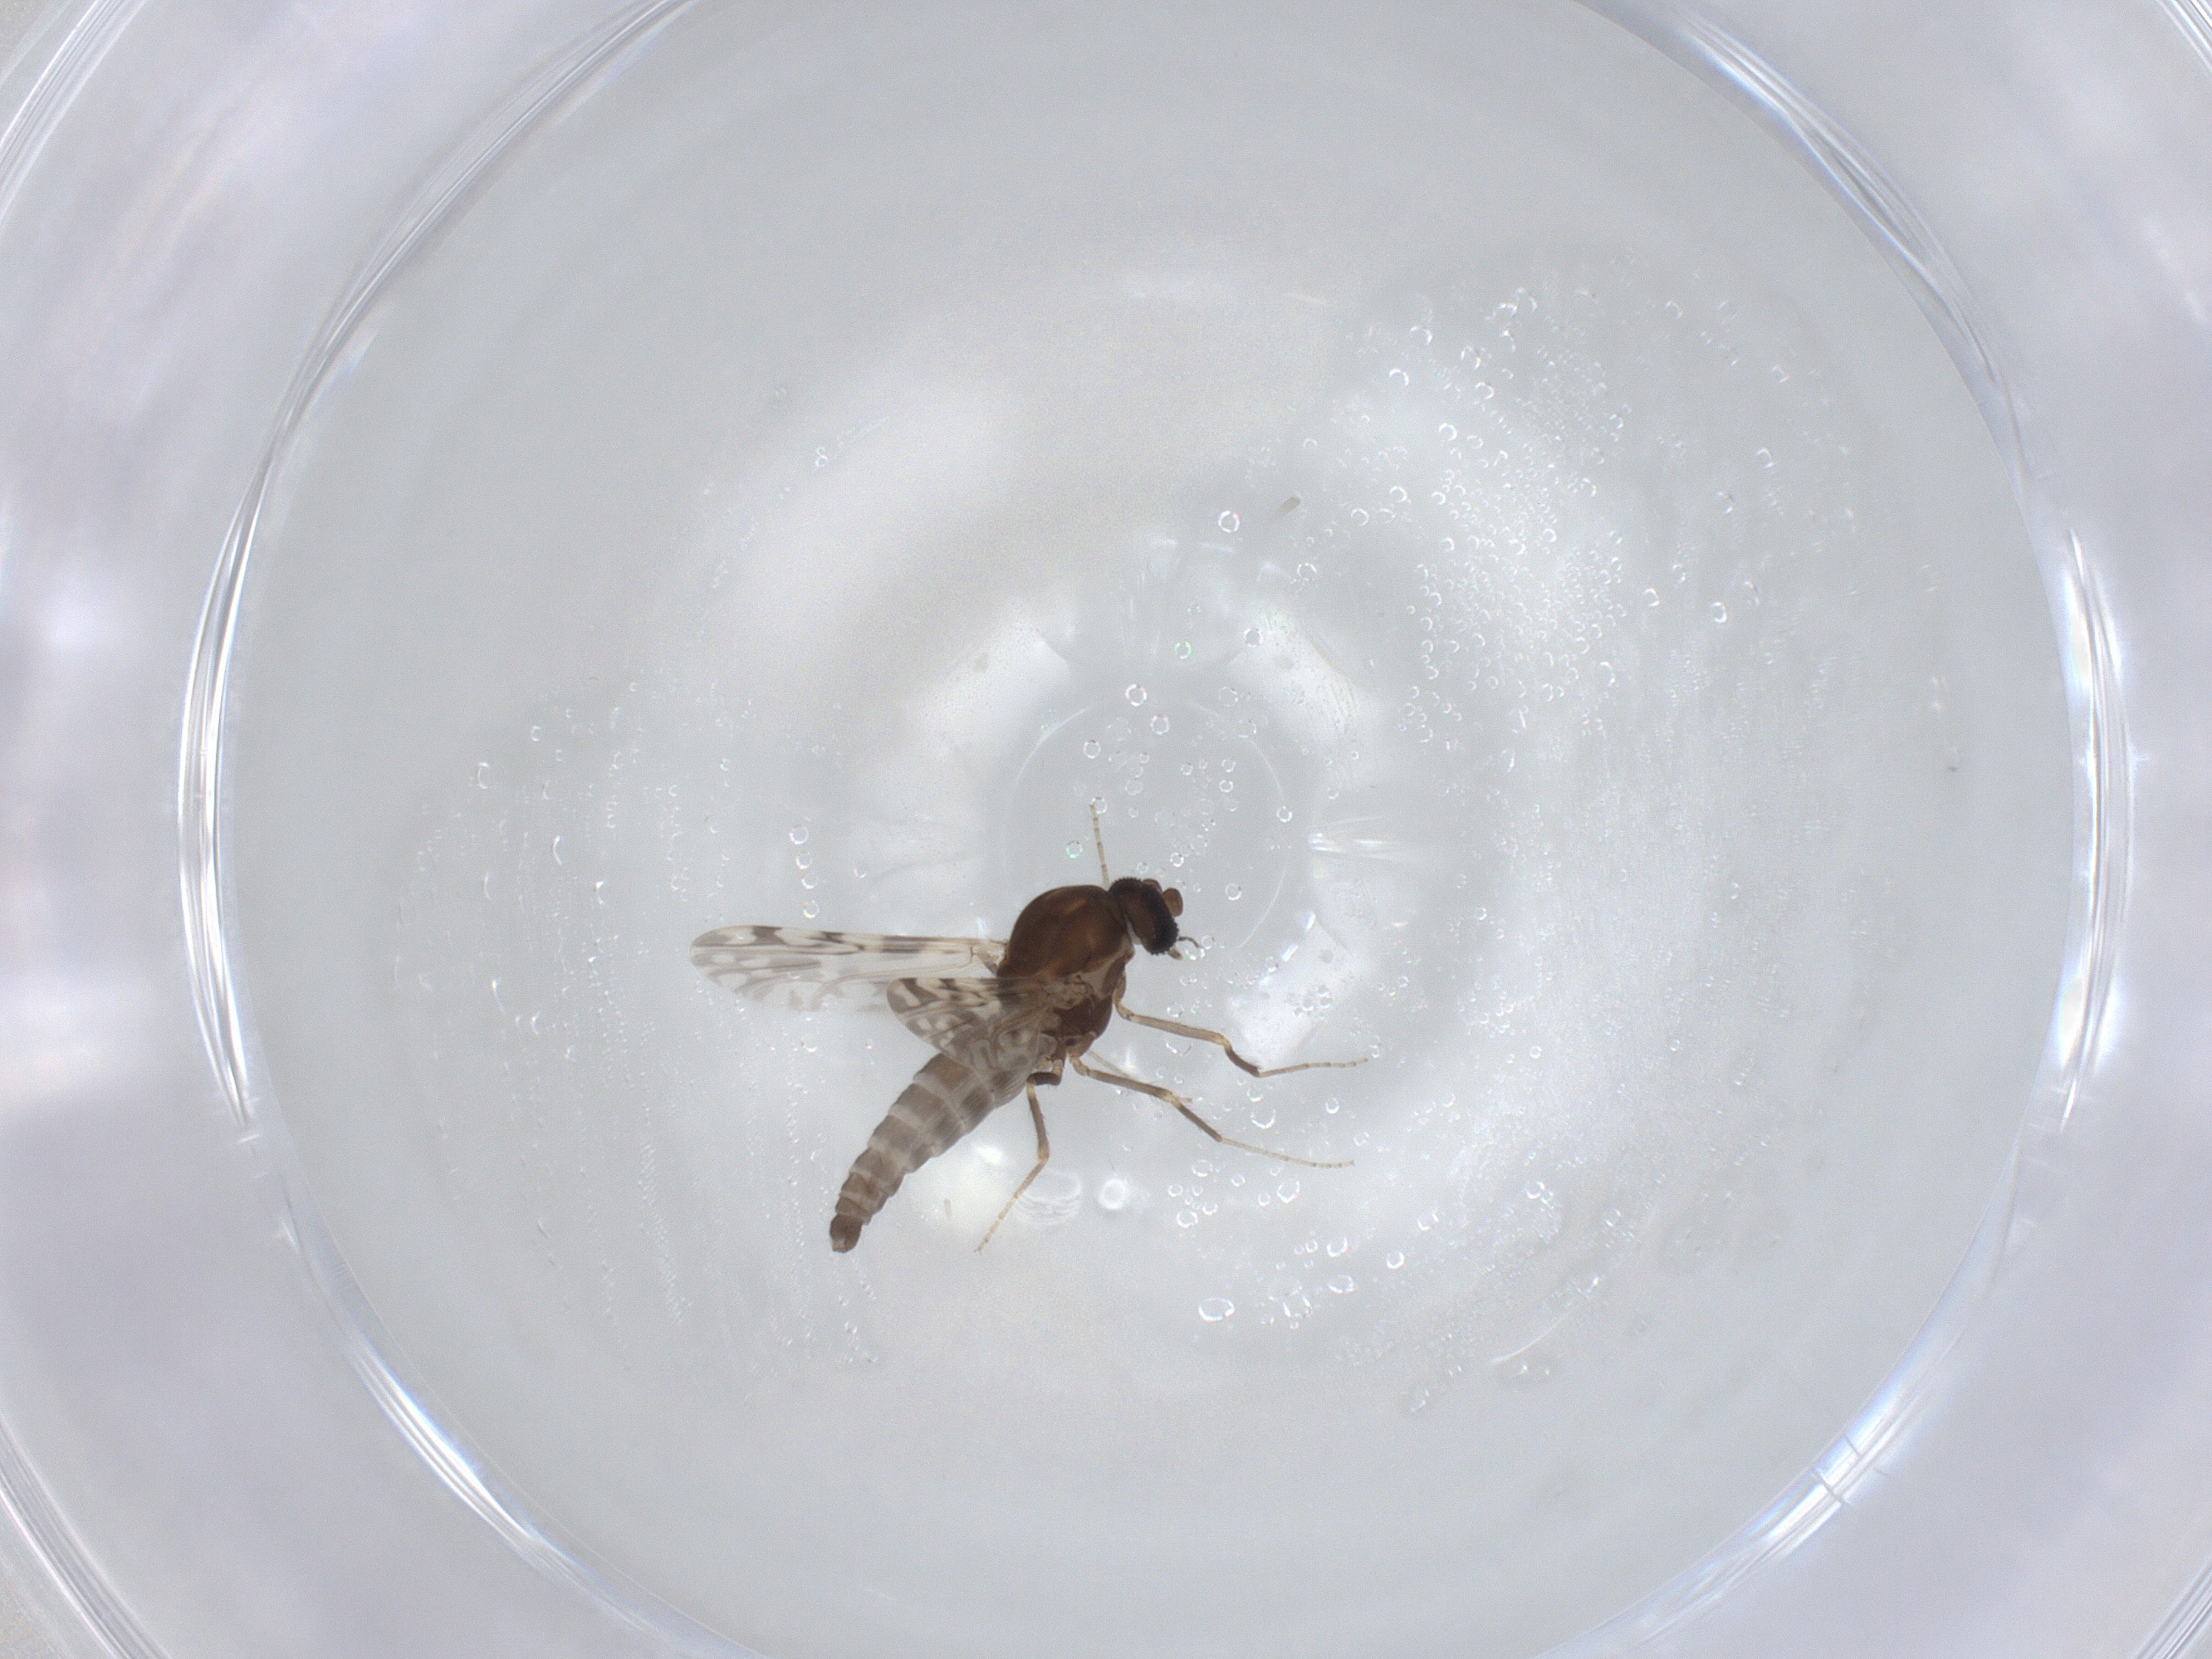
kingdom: Animalia
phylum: Arthropoda
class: Insecta
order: Diptera
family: Ceratopogonidae
